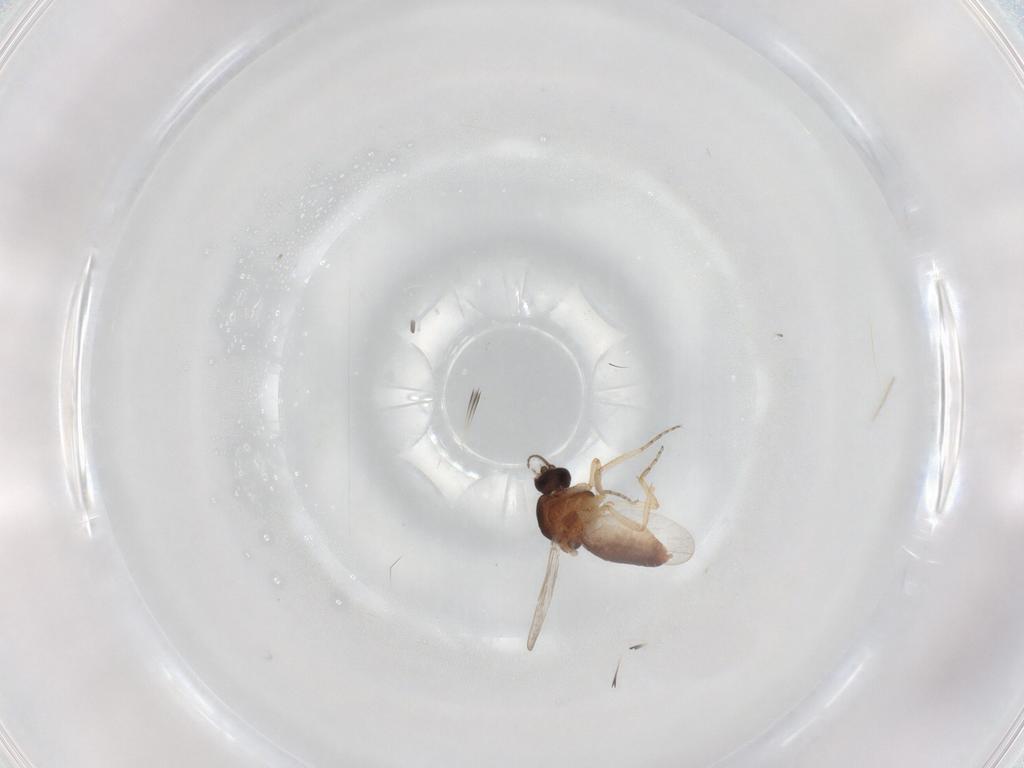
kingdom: Animalia
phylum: Arthropoda
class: Insecta
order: Diptera
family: Ceratopogonidae
